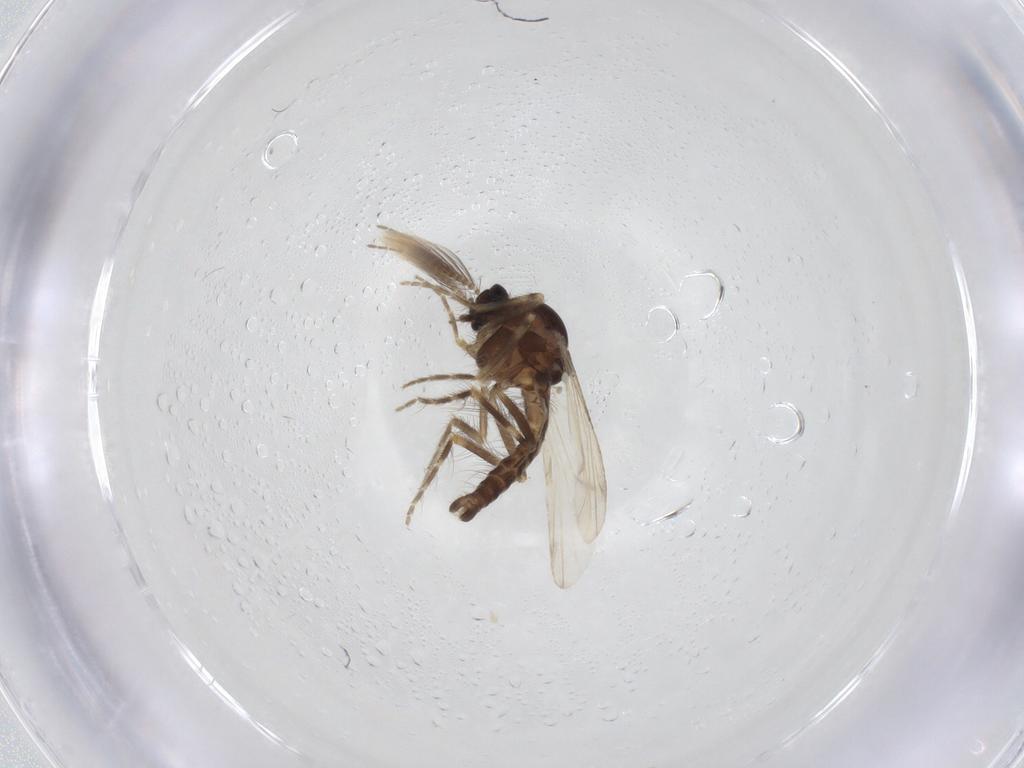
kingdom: Animalia
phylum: Arthropoda
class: Insecta
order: Diptera
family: Ceratopogonidae
